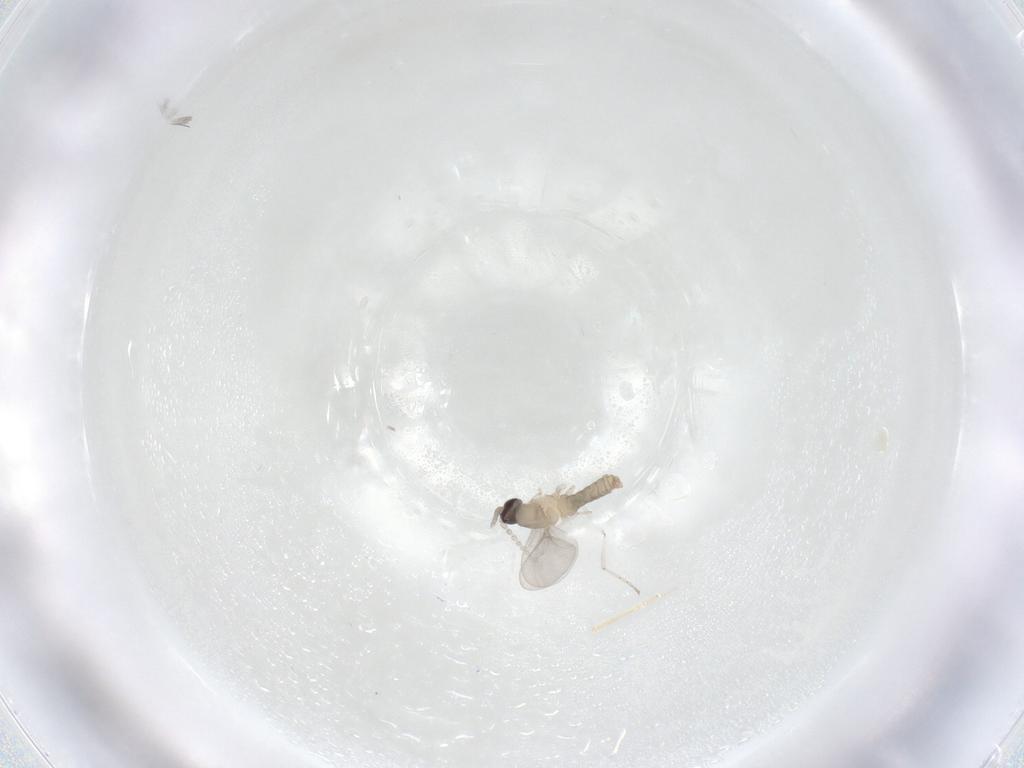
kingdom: Animalia
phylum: Arthropoda
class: Insecta
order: Diptera
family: Cecidomyiidae
